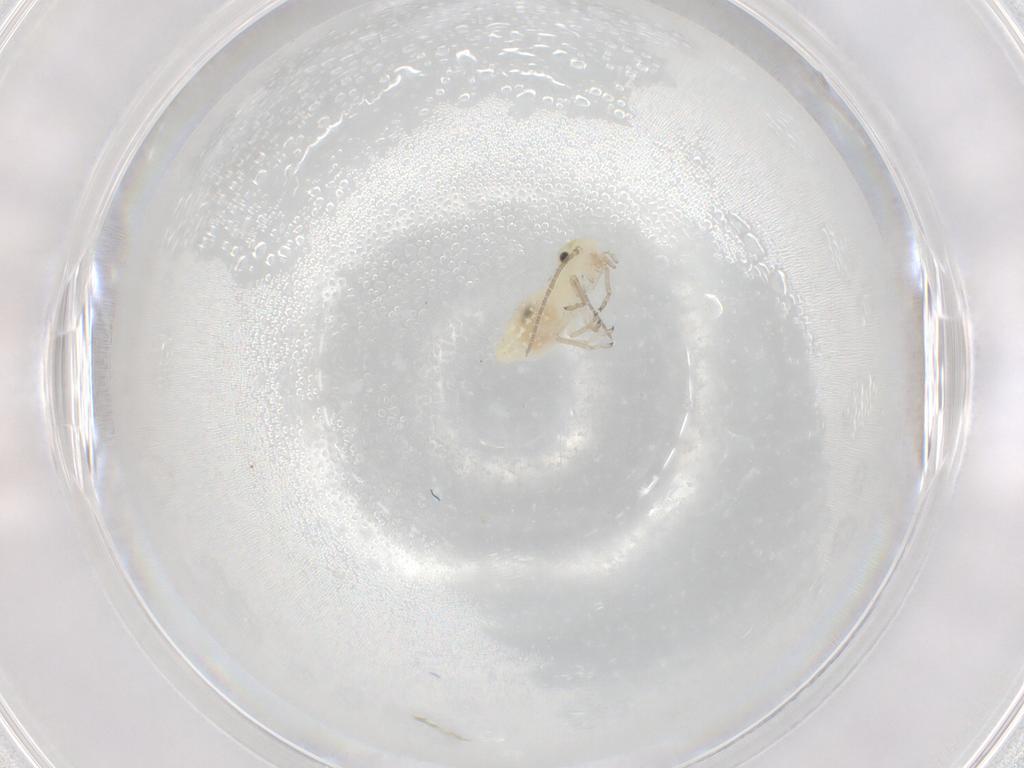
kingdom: Animalia
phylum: Arthropoda
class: Insecta
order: Psocodea
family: Caeciliusidae
